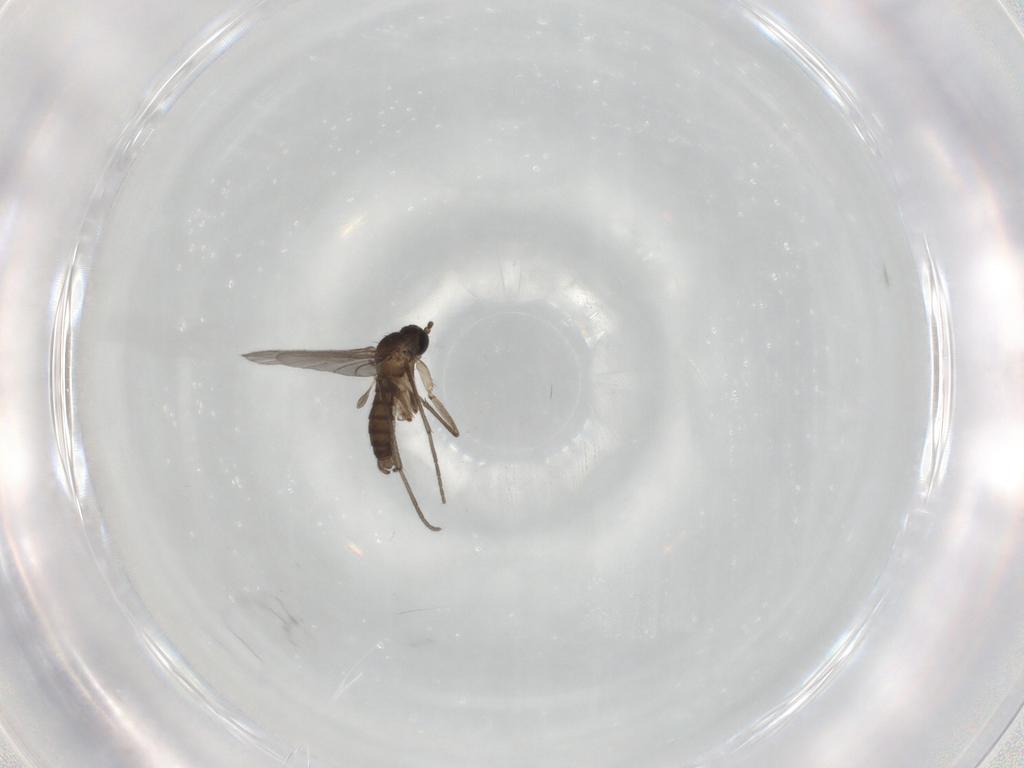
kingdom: Animalia
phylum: Arthropoda
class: Insecta
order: Diptera
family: Sciaridae
